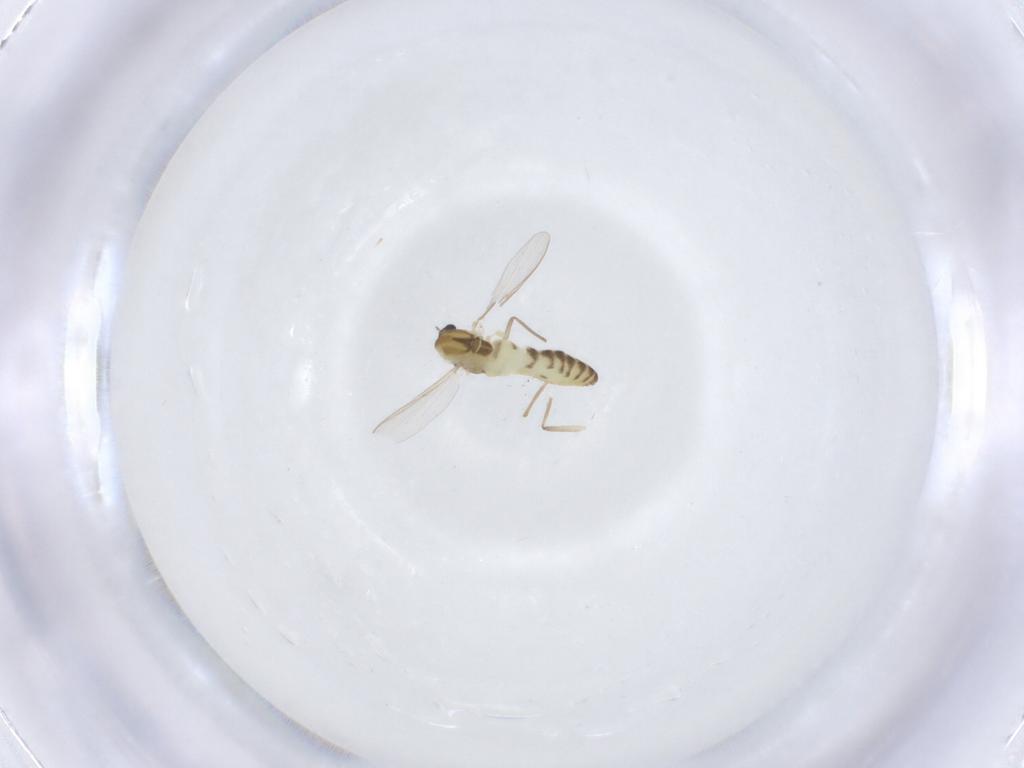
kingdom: Animalia
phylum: Arthropoda
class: Insecta
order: Diptera
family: Chironomidae
